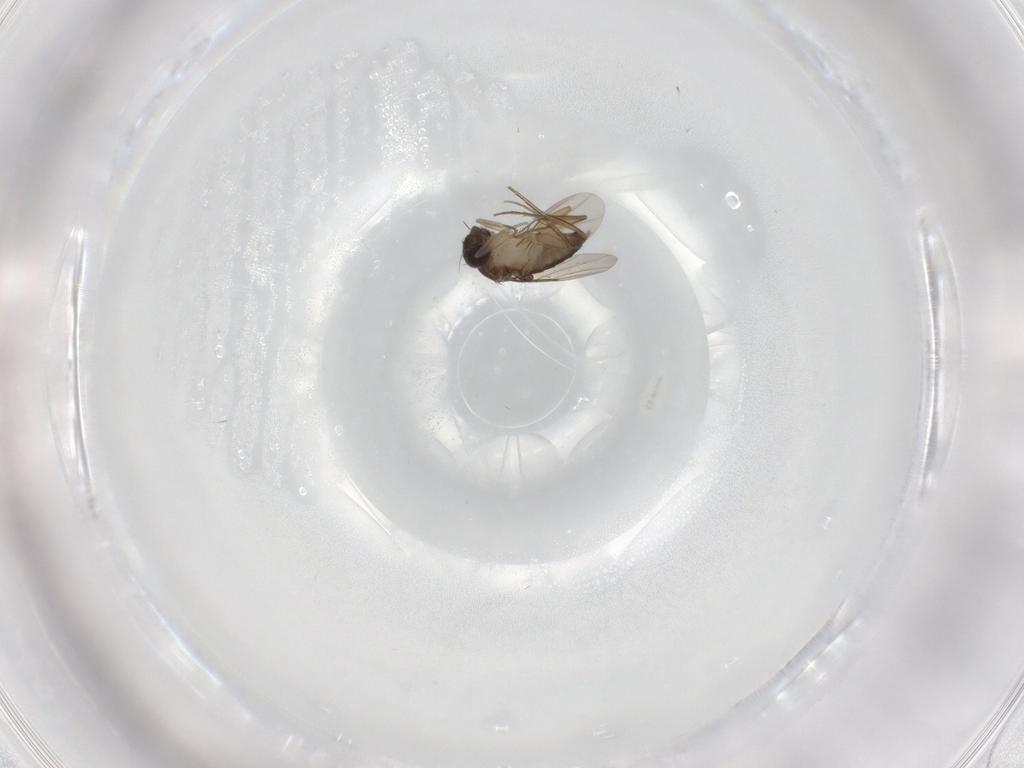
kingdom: Animalia
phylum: Arthropoda
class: Insecta
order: Diptera
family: Phoridae
